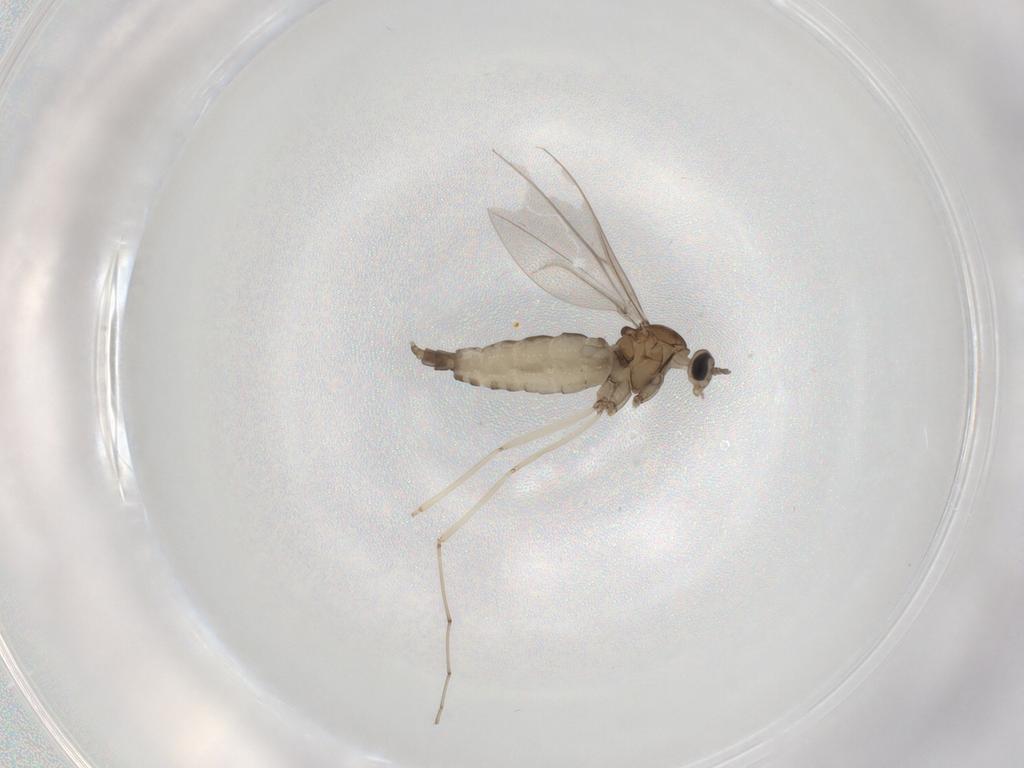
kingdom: Animalia
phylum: Arthropoda
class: Insecta
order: Diptera
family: Cecidomyiidae
